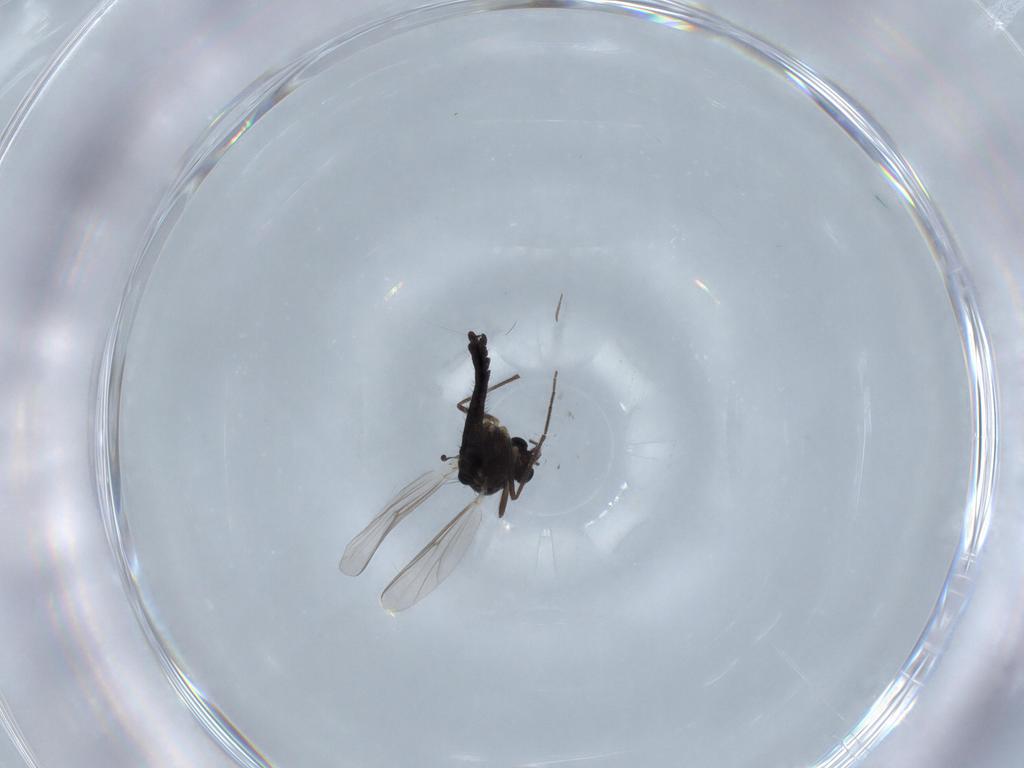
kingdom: Animalia
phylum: Arthropoda
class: Insecta
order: Diptera
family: Chironomidae
